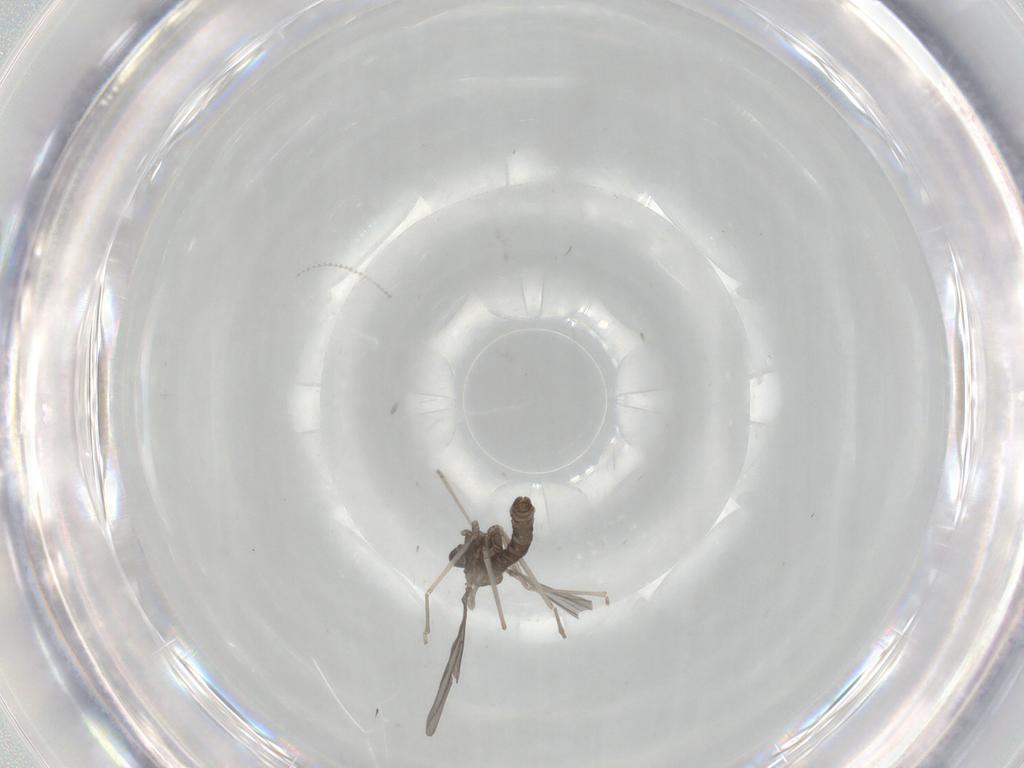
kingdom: Animalia
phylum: Arthropoda
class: Insecta
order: Diptera
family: Cecidomyiidae
